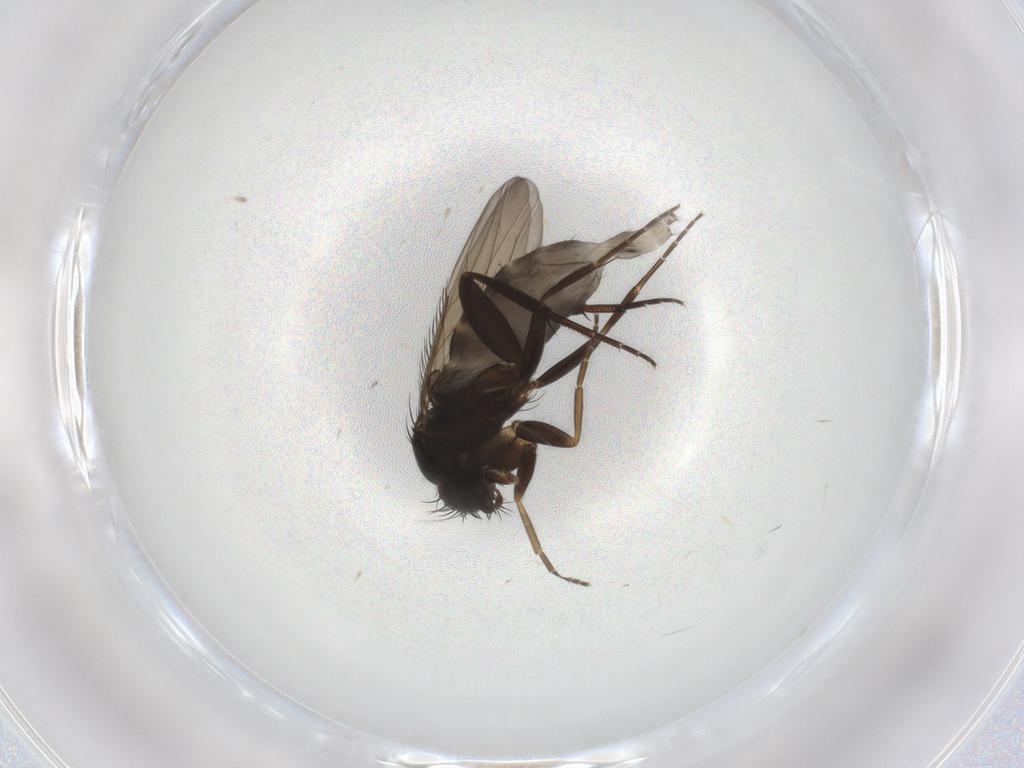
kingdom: Animalia
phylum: Arthropoda
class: Insecta
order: Diptera
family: Phoridae
